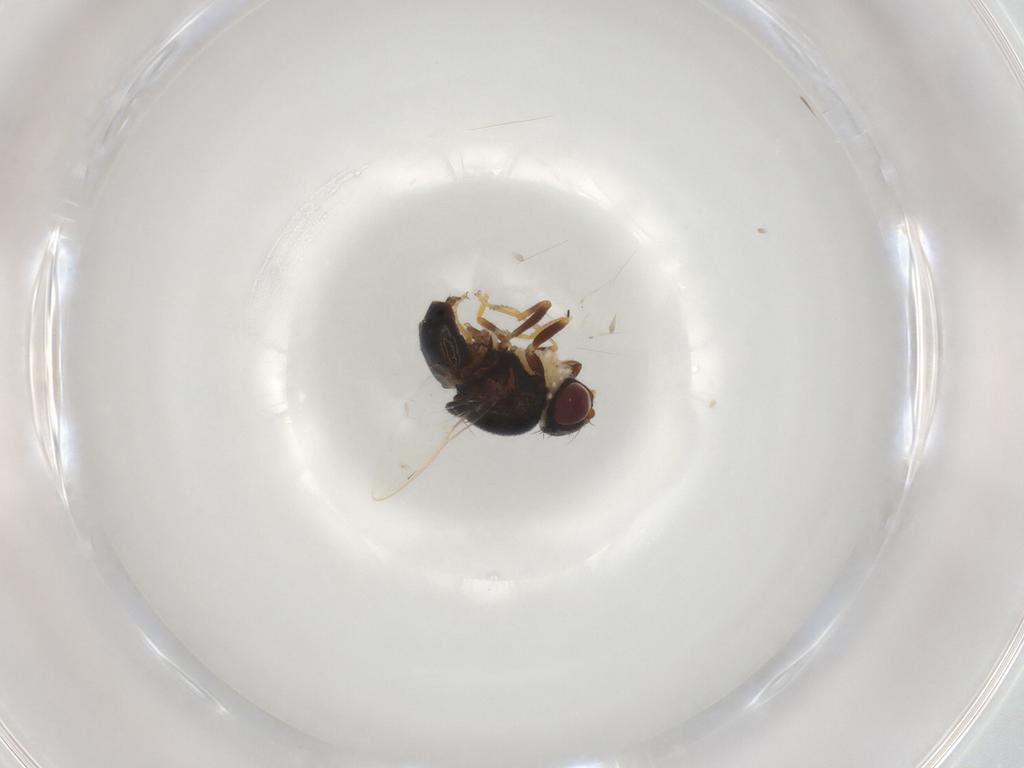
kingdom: Animalia
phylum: Arthropoda
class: Insecta
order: Diptera
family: Chloropidae
